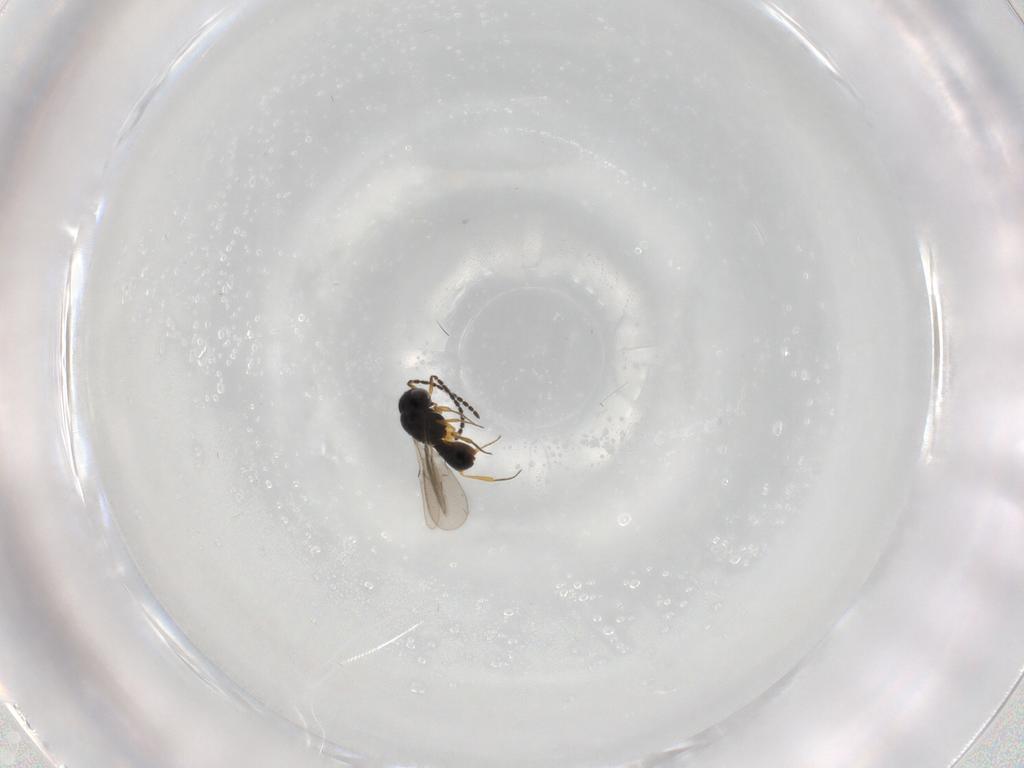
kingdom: Animalia
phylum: Arthropoda
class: Insecta
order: Hymenoptera
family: Scelionidae
